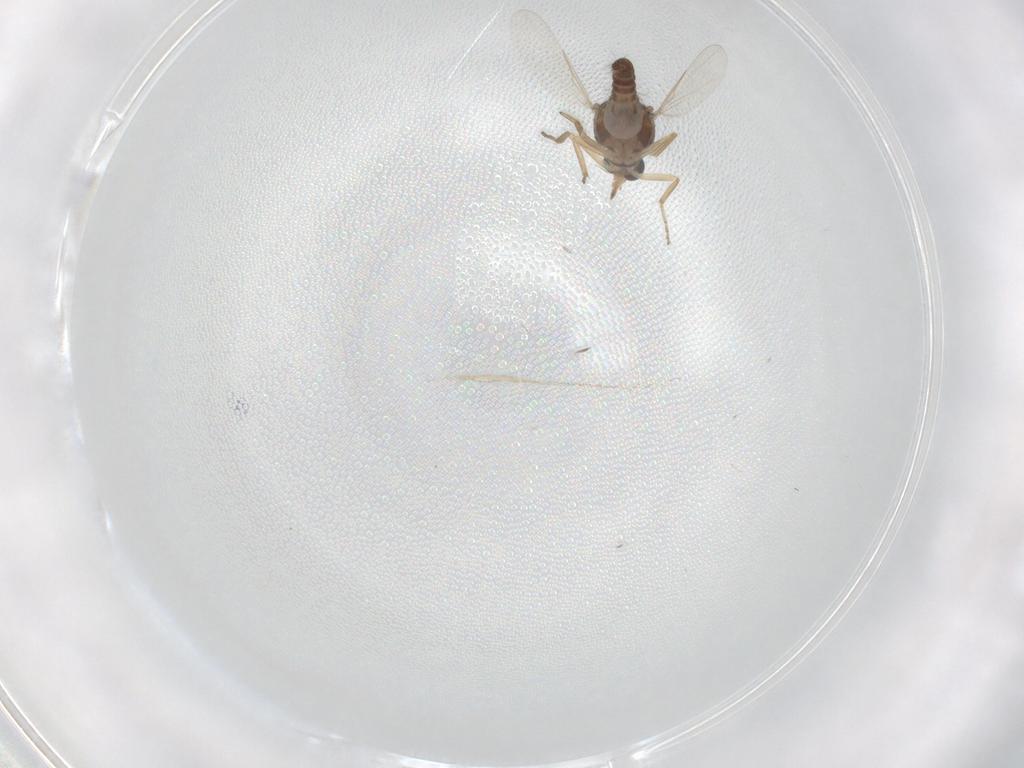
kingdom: Animalia
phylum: Arthropoda
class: Insecta
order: Diptera
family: Ceratopogonidae
